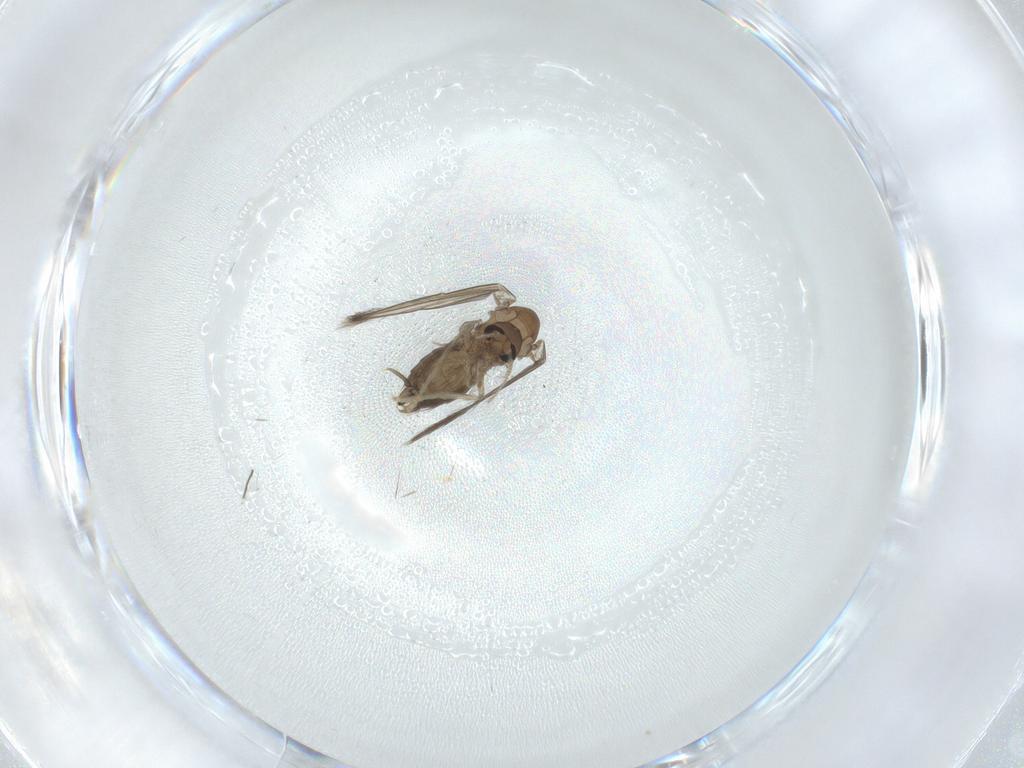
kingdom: Animalia
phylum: Arthropoda
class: Insecta
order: Diptera
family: Psychodidae
